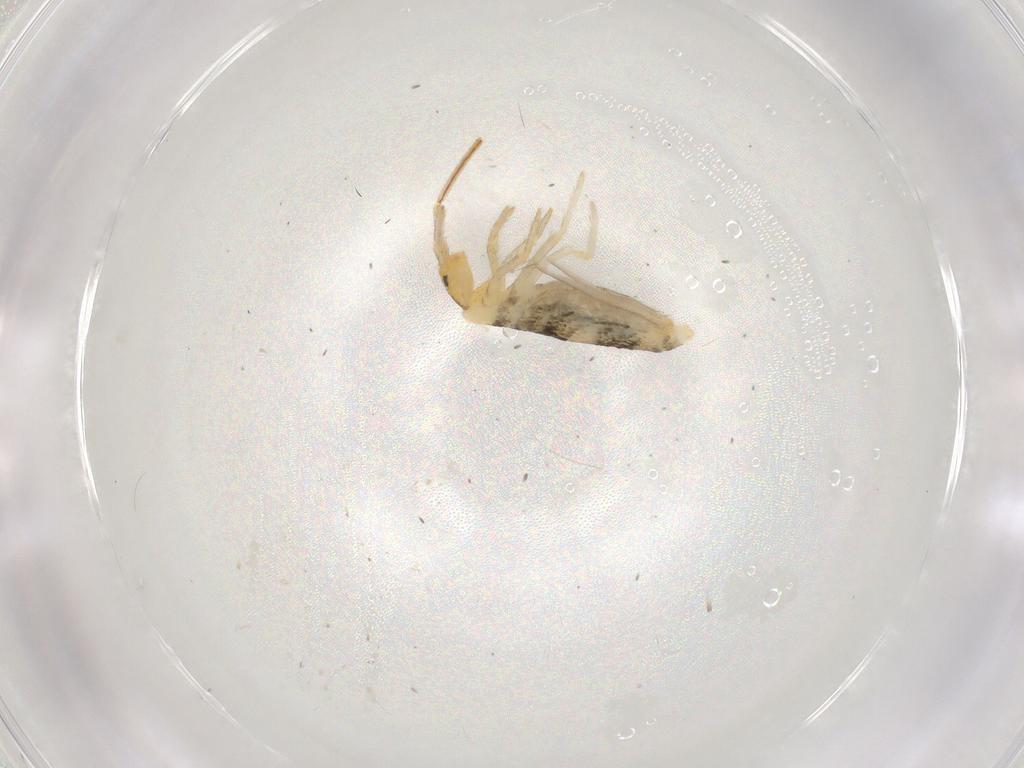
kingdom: Animalia
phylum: Arthropoda
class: Collembola
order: Entomobryomorpha
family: Entomobryidae
